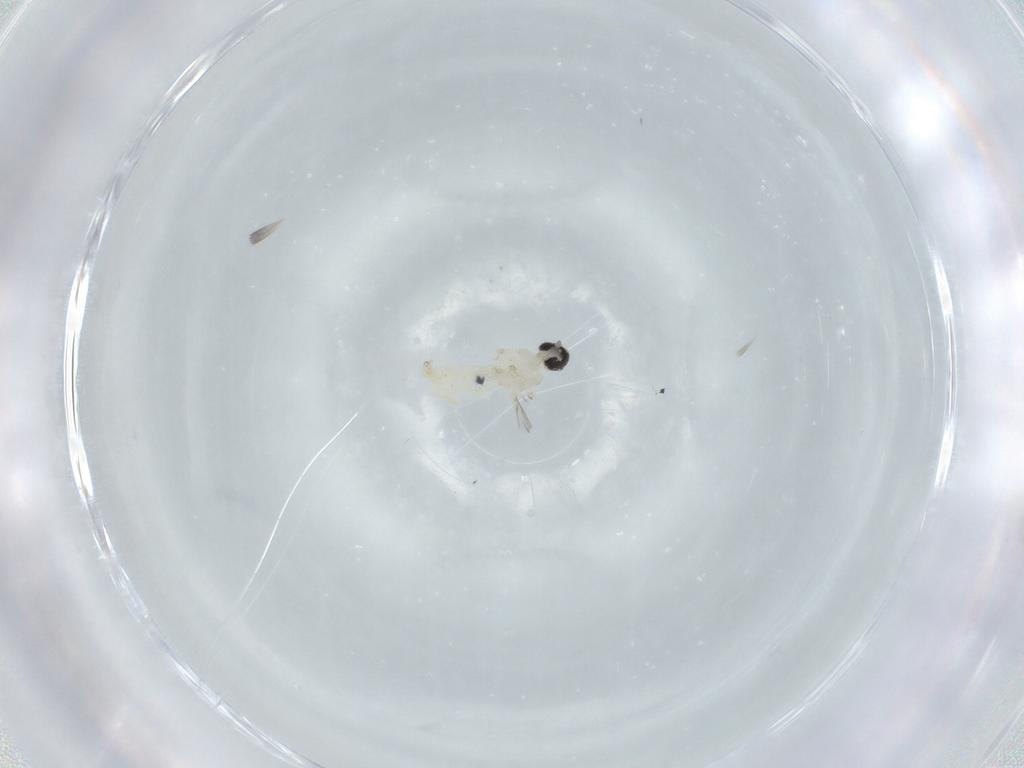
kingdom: Animalia
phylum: Arthropoda
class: Insecta
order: Diptera
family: Cecidomyiidae
